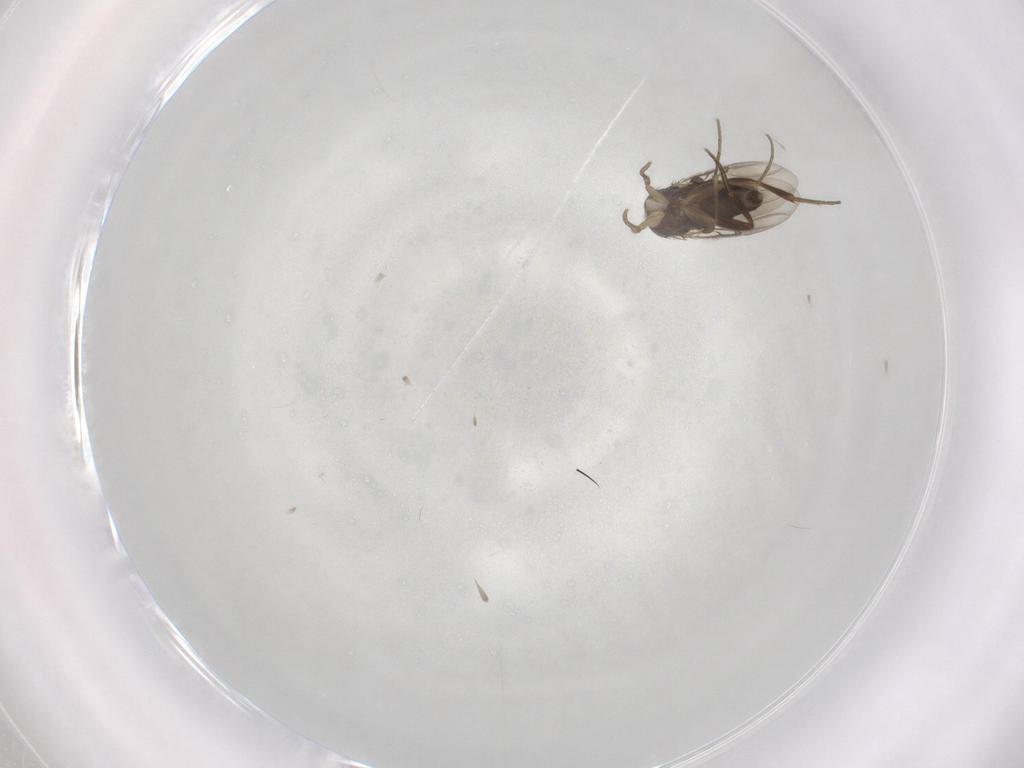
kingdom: Animalia
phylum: Arthropoda
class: Insecta
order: Diptera
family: Phoridae
